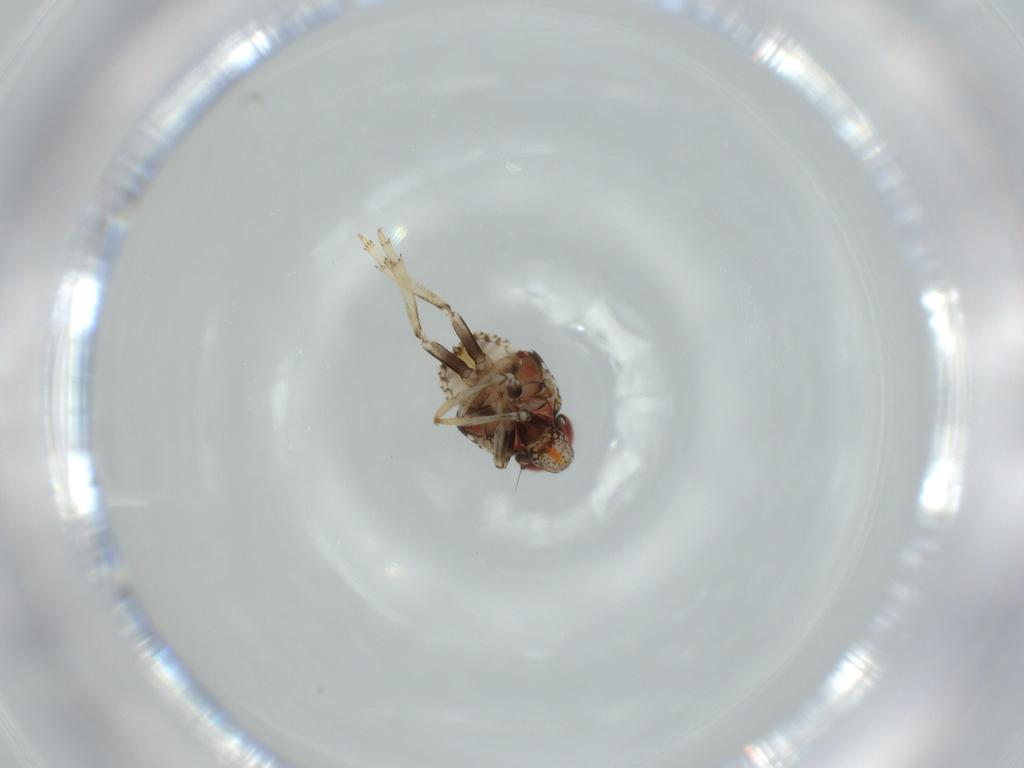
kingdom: Animalia
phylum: Arthropoda
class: Insecta
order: Hemiptera
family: Issidae
